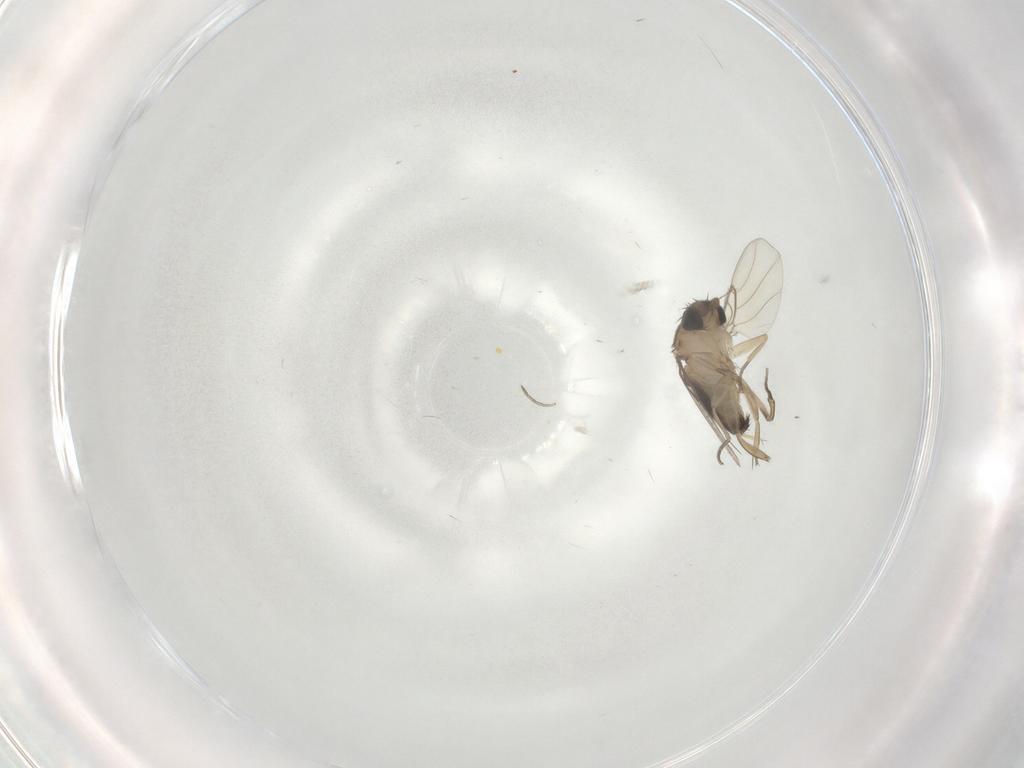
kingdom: Animalia
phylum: Arthropoda
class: Insecta
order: Diptera
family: Phoridae
